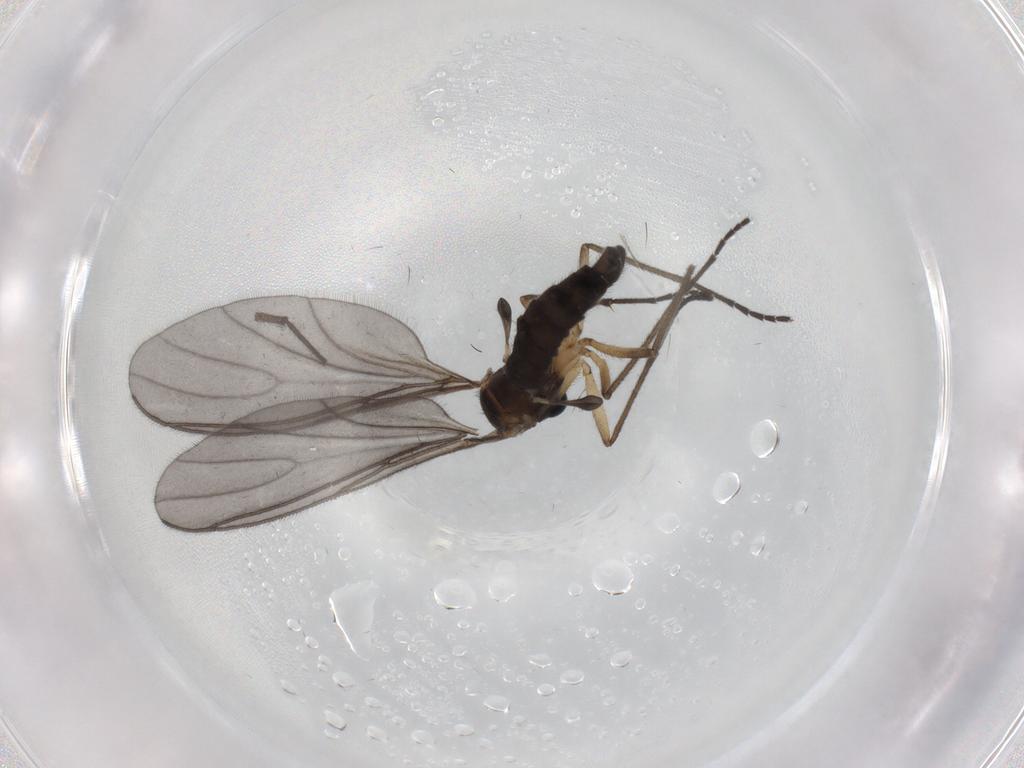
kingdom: Animalia
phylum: Arthropoda
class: Insecta
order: Diptera
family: Sciaridae
